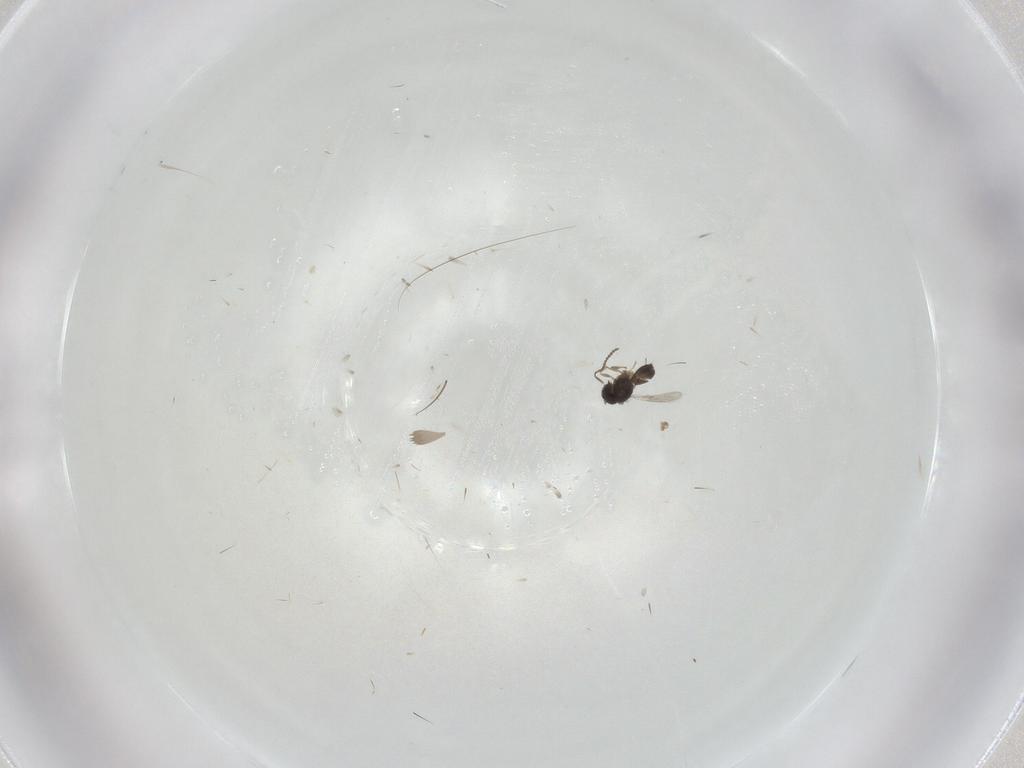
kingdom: Animalia
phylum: Arthropoda
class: Insecta
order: Hymenoptera
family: Scelionidae
